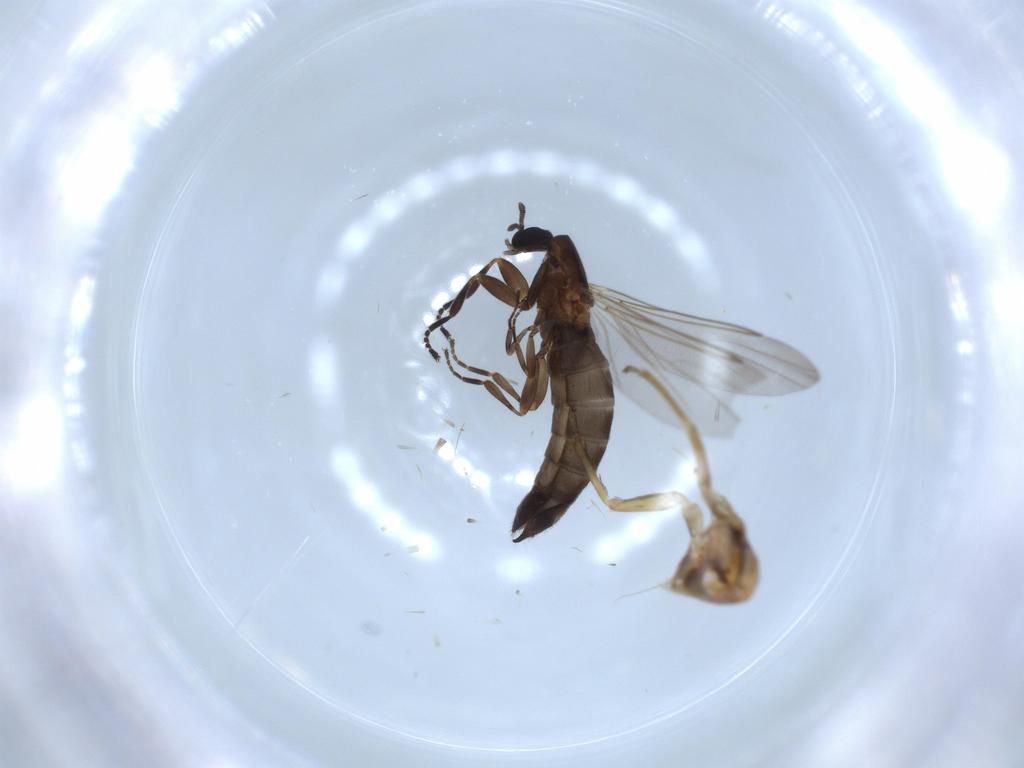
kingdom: Animalia
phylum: Arthropoda
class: Insecta
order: Diptera
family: Scatopsidae
